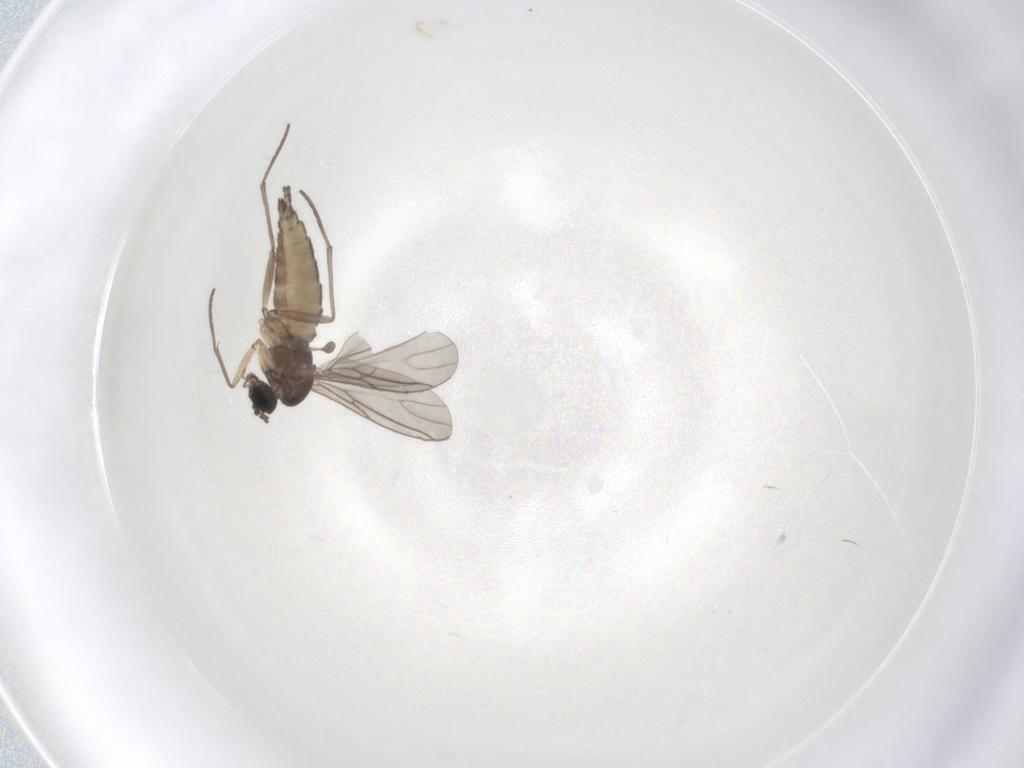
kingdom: Animalia
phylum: Arthropoda
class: Insecta
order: Diptera
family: Sciaridae
